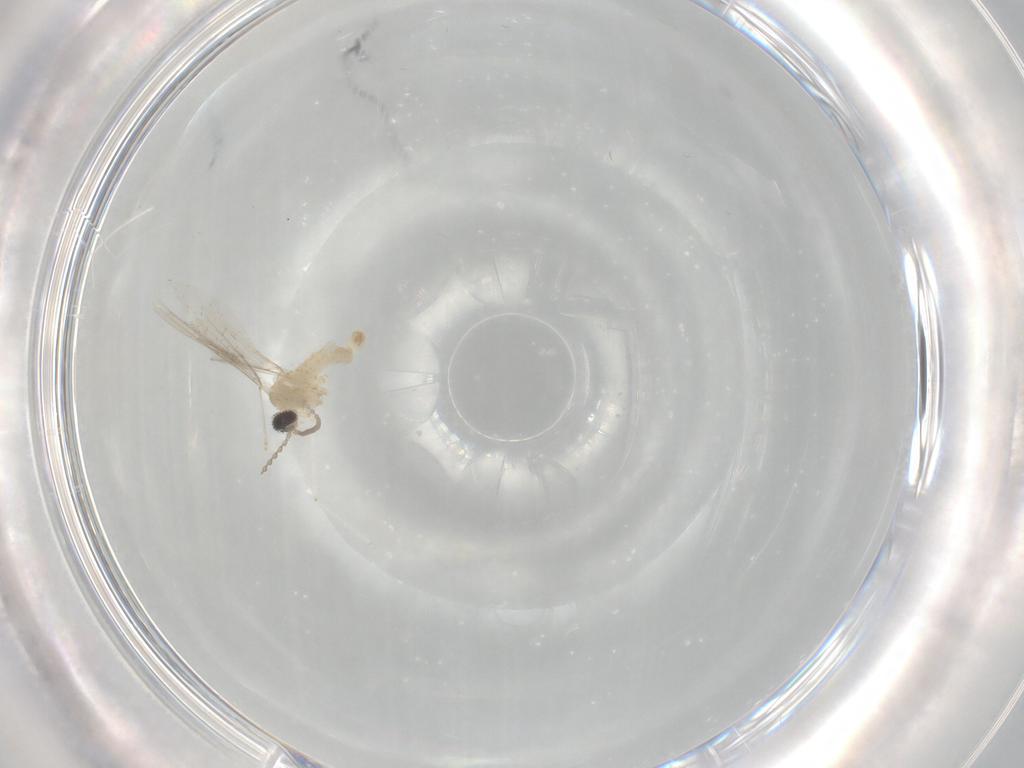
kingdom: Animalia
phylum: Arthropoda
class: Insecta
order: Diptera
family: Cecidomyiidae
